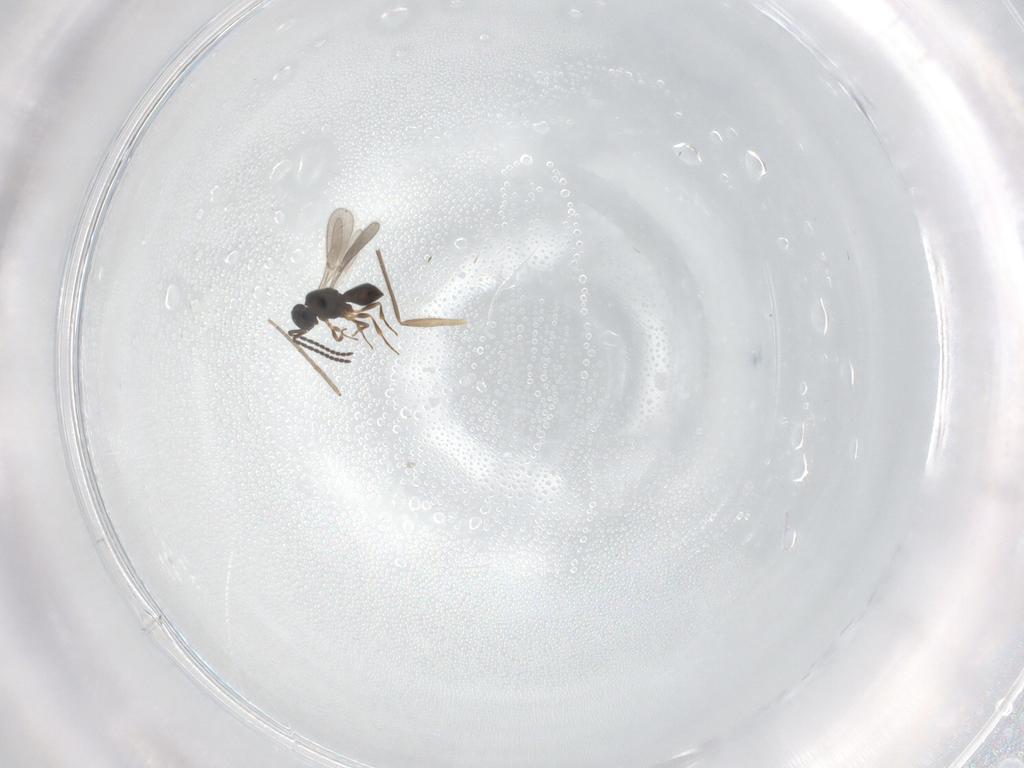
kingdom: Animalia
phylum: Arthropoda
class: Insecta
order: Hymenoptera
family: Scelionidae
